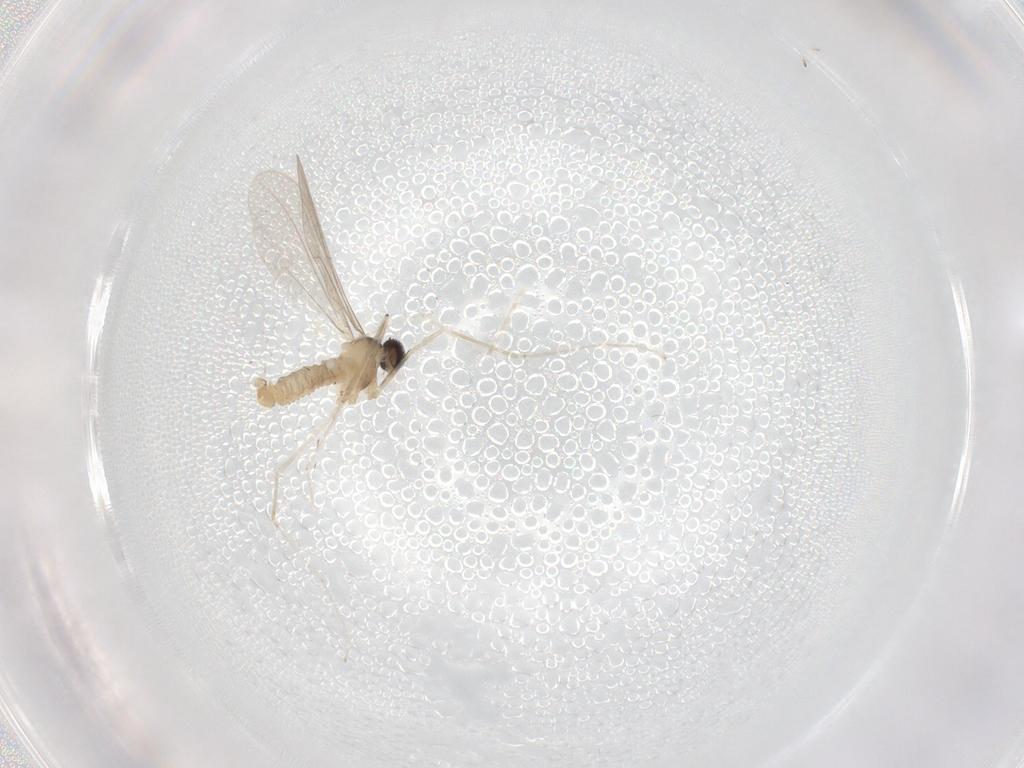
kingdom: Animalia
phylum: Arthropoda
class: Insecta
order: Diptera
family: Cecidomyiidae
